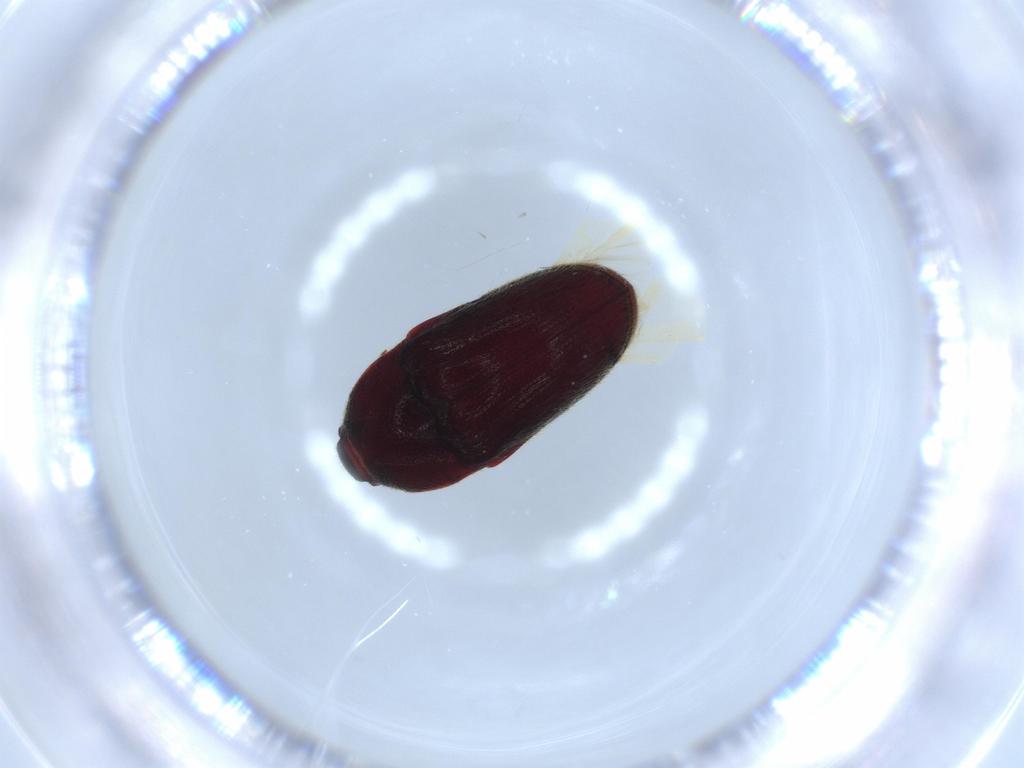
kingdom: Animalia
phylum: Arthropoda
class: Insecta
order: Coleoptera
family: Throscidae
